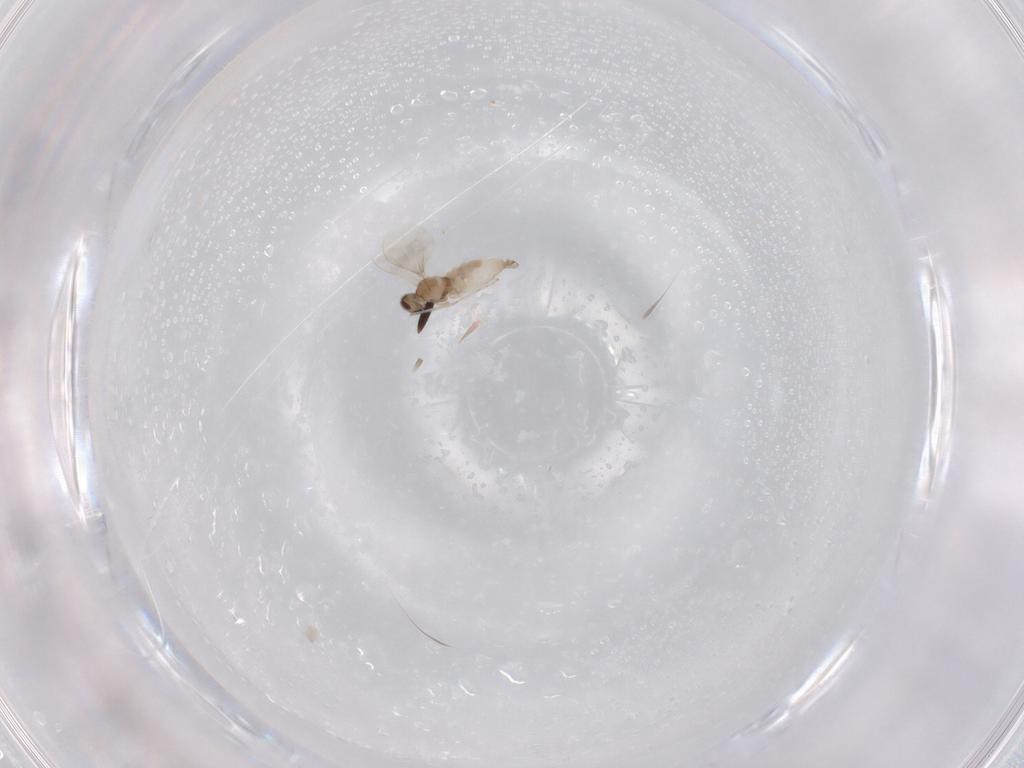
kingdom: Animalia
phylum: Arthropoda
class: Insecta
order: Diptera
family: Cecidomyiidae
